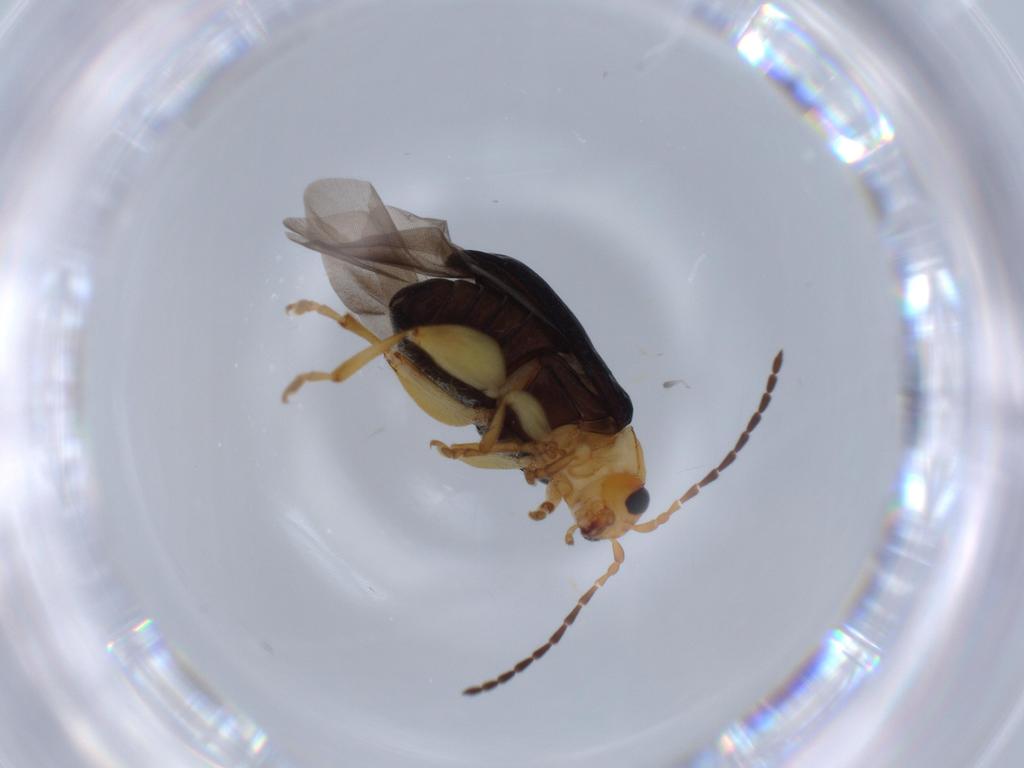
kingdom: Animalia
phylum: Arthropoda
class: Insecta
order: Coleoptera
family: Chrysomelidae
